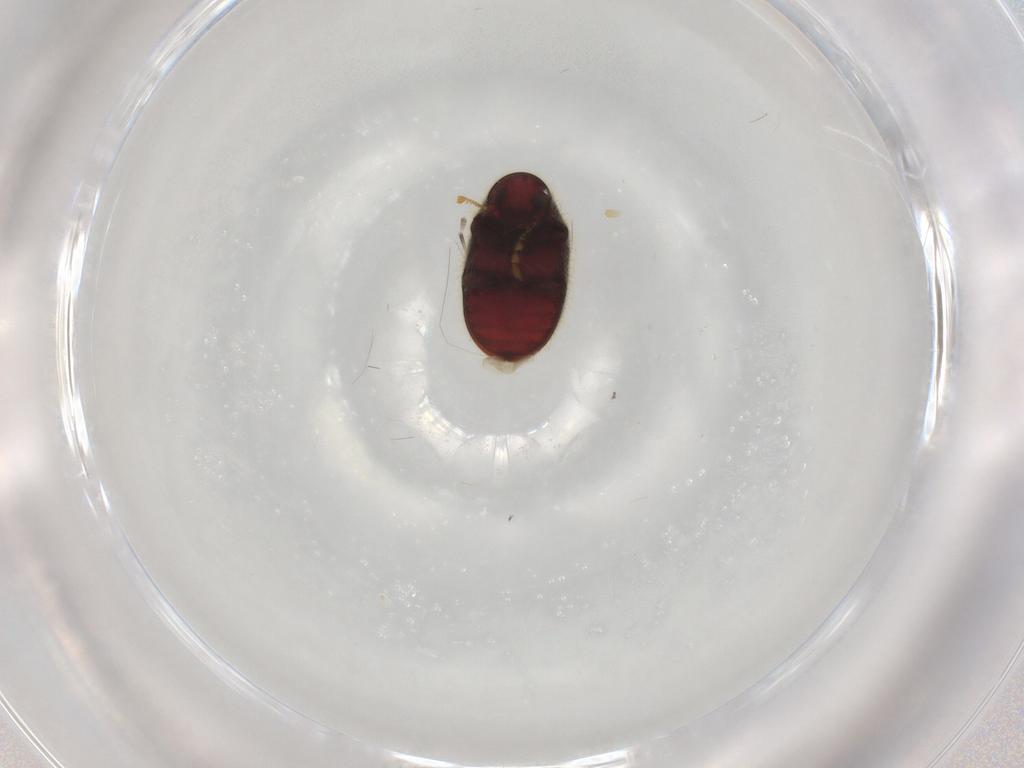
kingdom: Animalia
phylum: Arthropoda
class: Insecta
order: Coleoptera
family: Ptinidae
